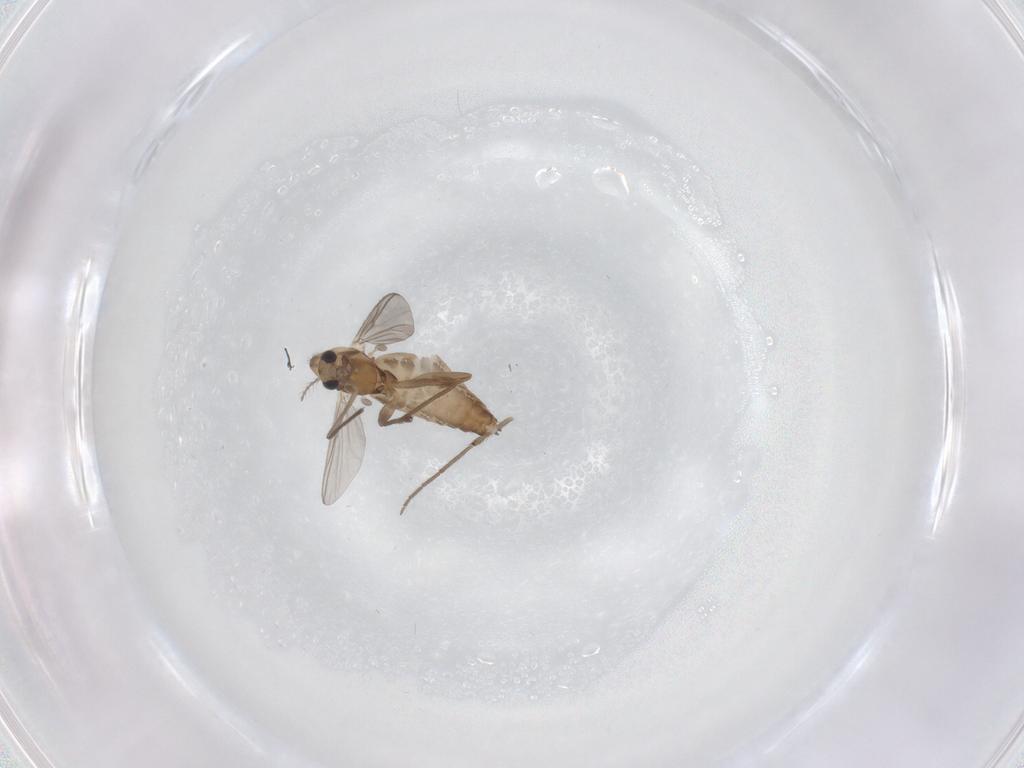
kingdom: Animalia
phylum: Arthropoda
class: Insecta
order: Diptera
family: Chironomidae
